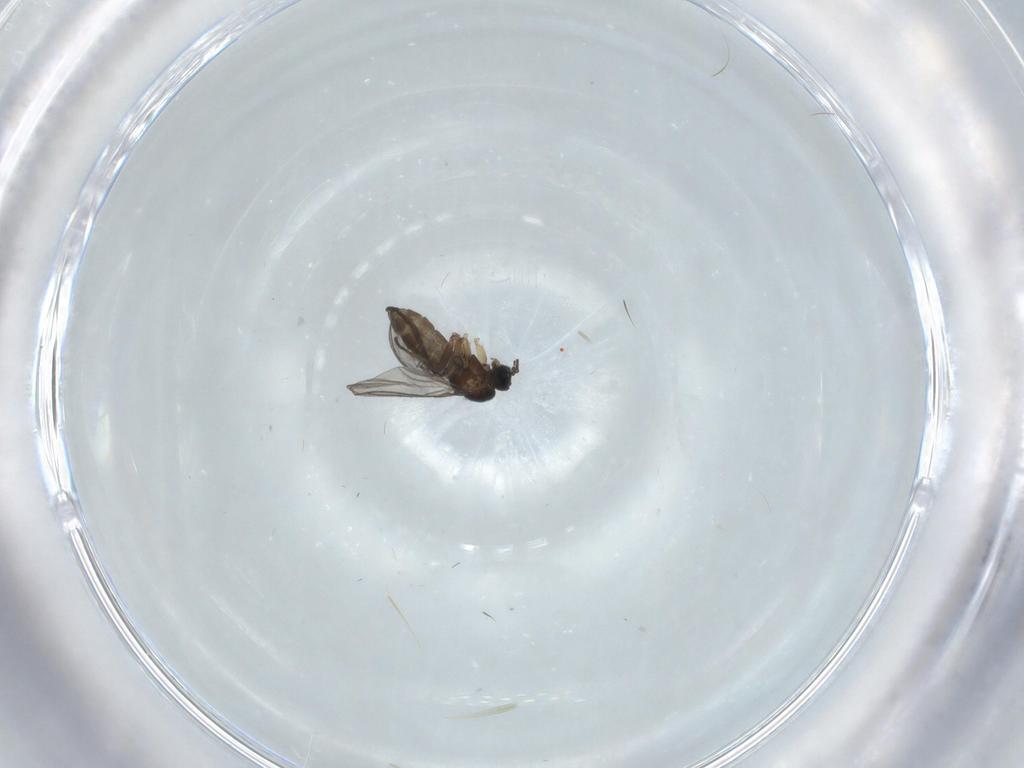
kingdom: Animalia
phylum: Arthropoda
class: Insecta
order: Diptera
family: Sciaridae
